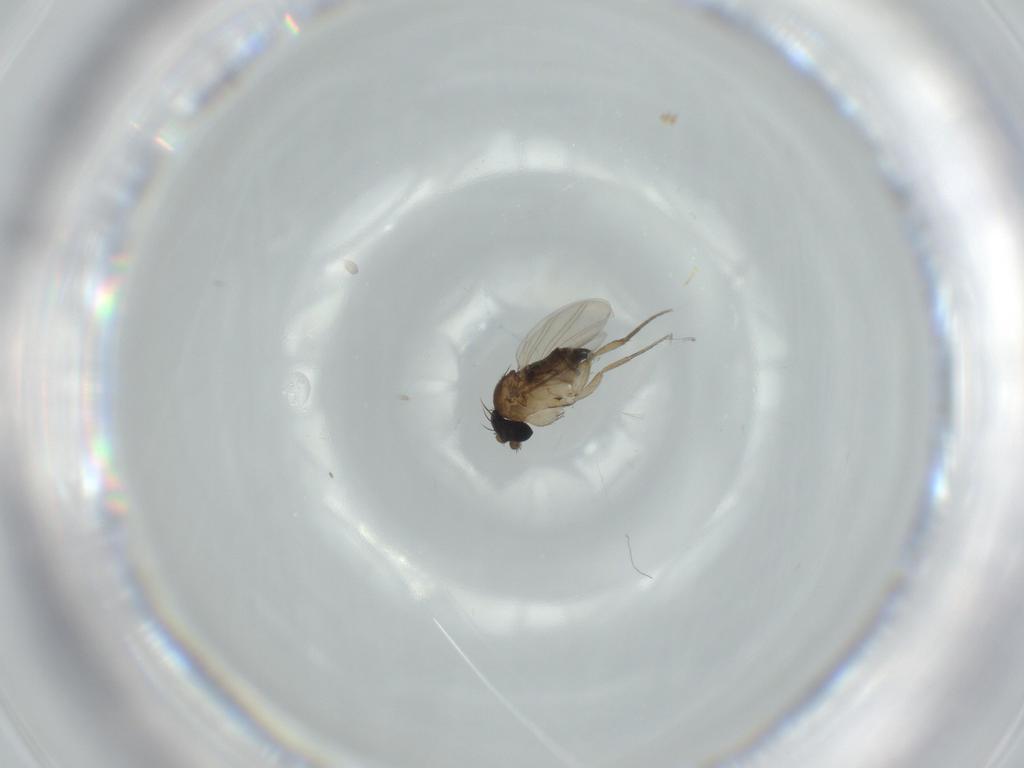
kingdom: Animalia
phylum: Arthropoda
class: Insecta
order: Diptera
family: Phoridae
